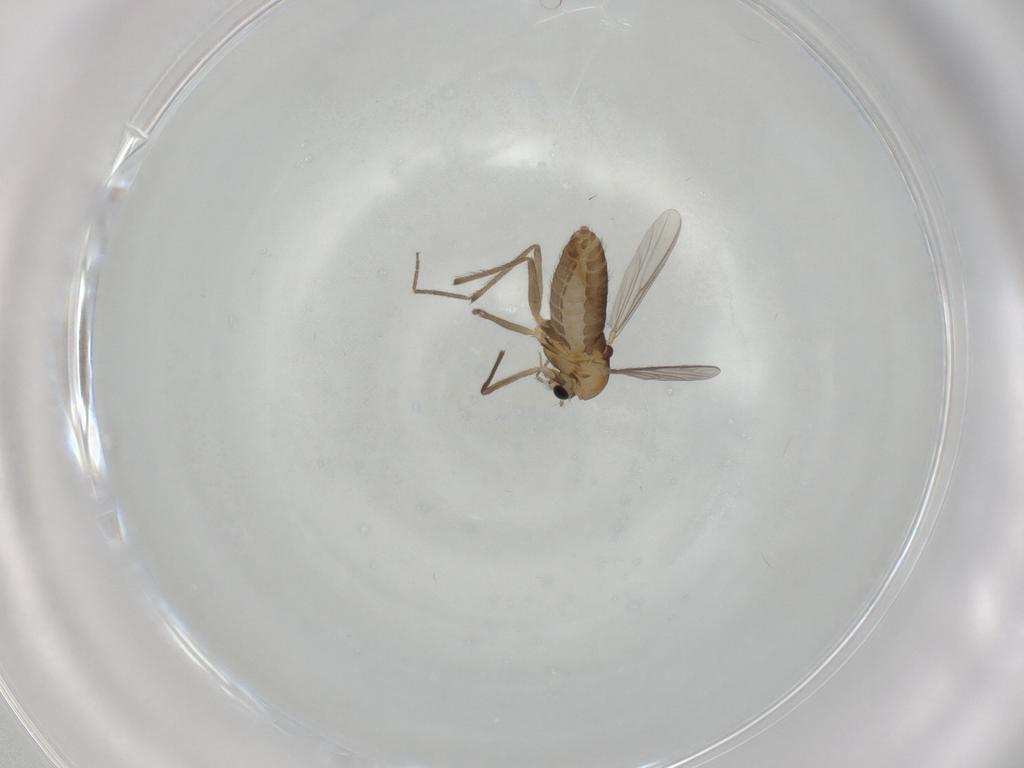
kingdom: Animalia
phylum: Arthropoda
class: Insecta
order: Diptera
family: Chironomidae
